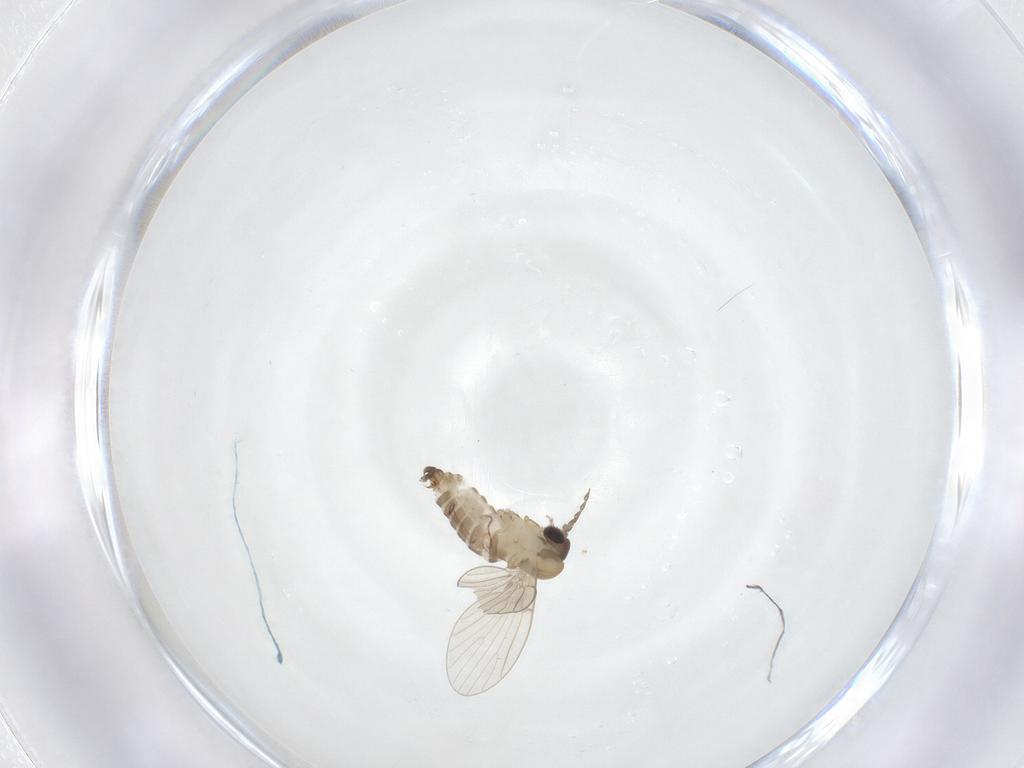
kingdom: Animalia
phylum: Arthropoda
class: Insecta
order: Diptera
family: Psychodidae
